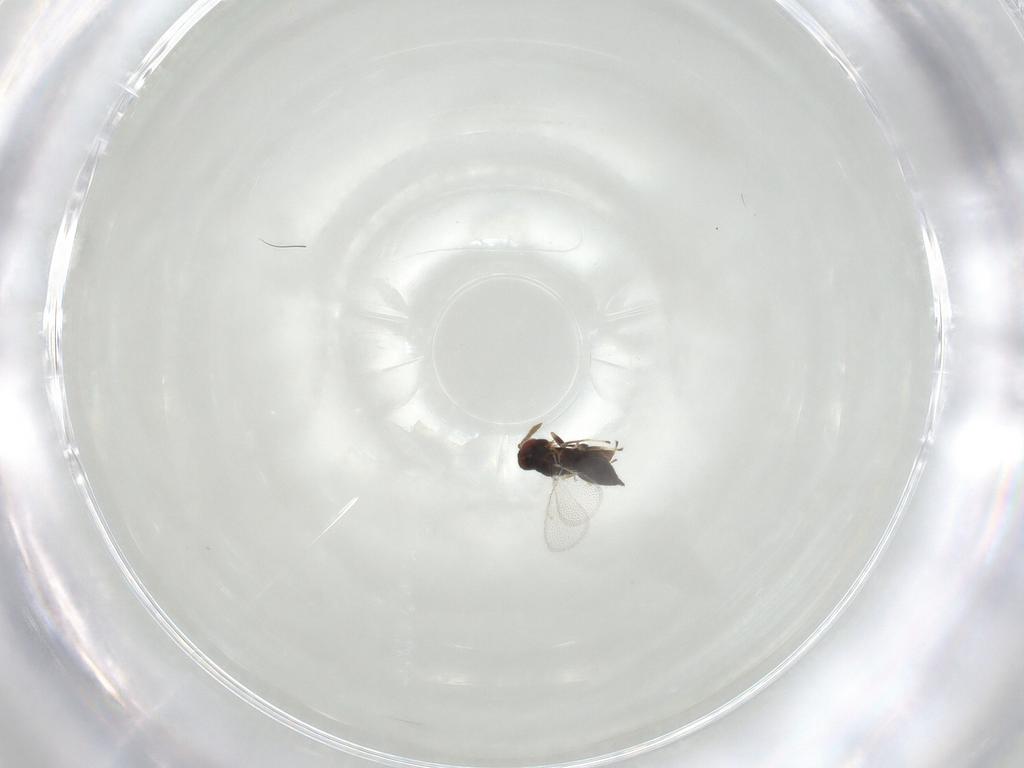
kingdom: Animalia
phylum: Arthropoda
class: Insecta
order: Hymenoptera
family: Eulophidae
